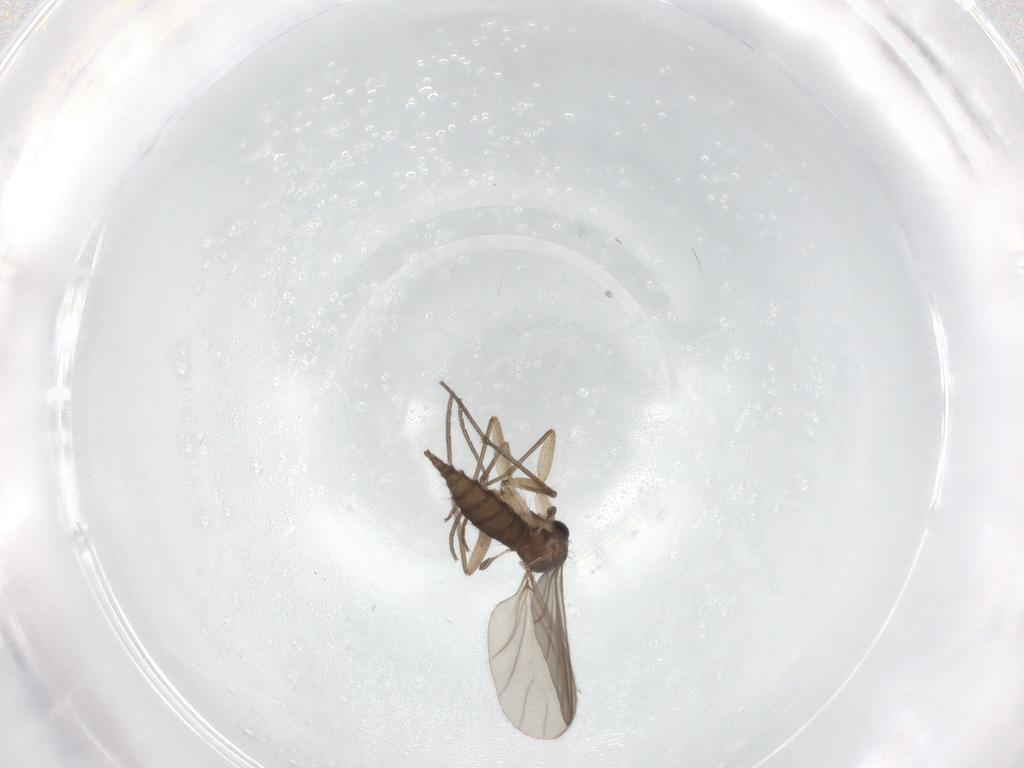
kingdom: Animalia
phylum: Arthropoda
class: Insecta
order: Diptera
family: Sciaridae
